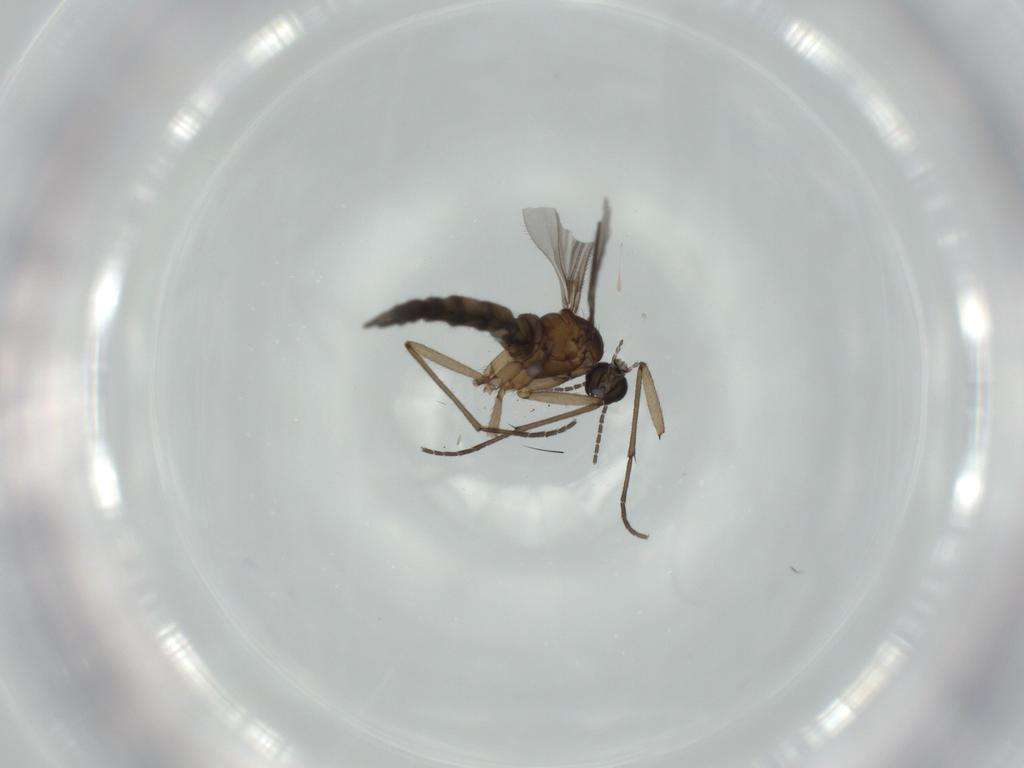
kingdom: Animalia
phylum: Arthropoda
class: Insecta
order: Diptera
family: Sciaridae
